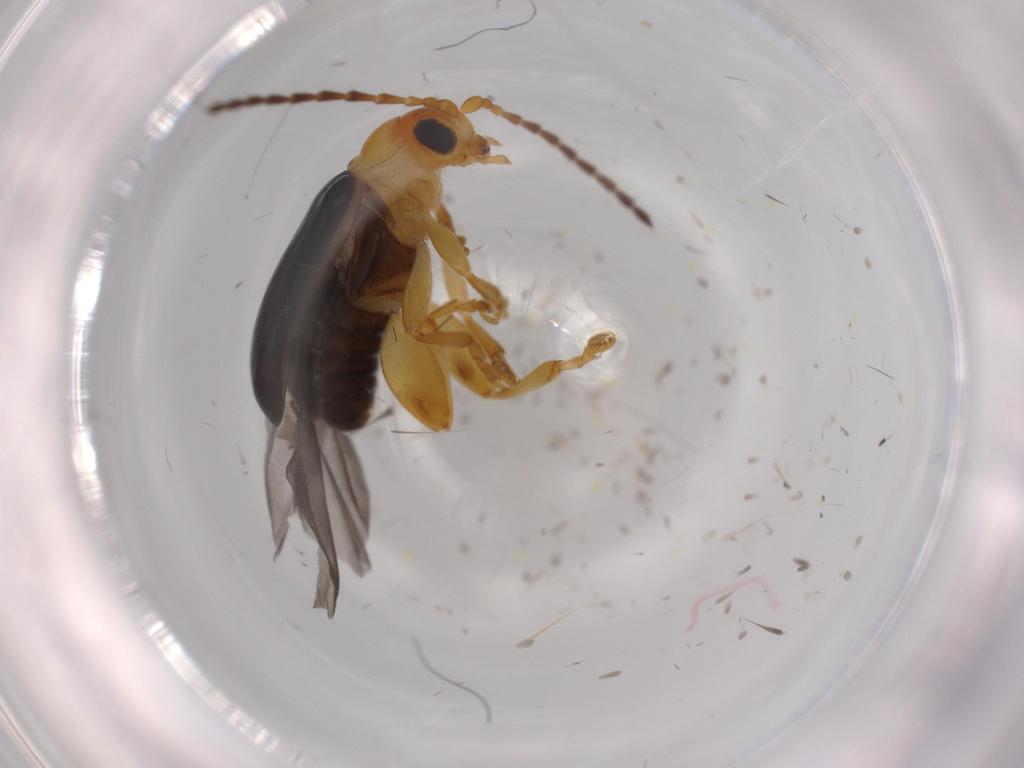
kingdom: Animalia
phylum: Arthropoda
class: Insecta
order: Coleoptera
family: Chrysomelidae
